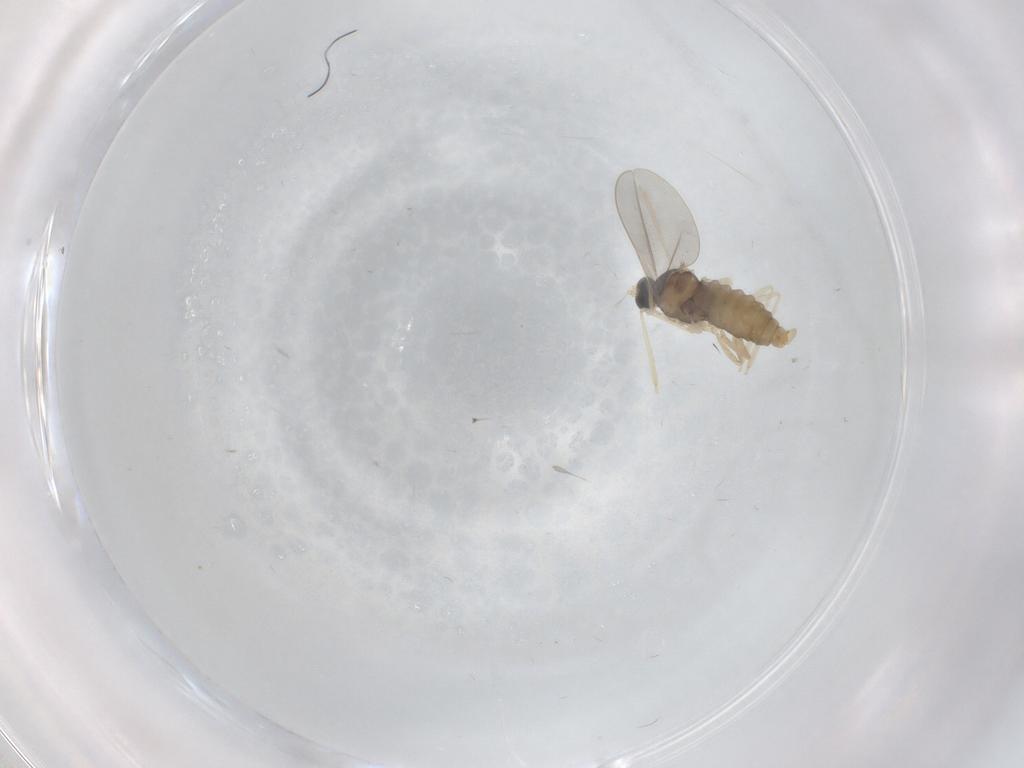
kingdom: Animalia
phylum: Arthropoda
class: Insecta
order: Diptera
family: Cecidomyiidae
